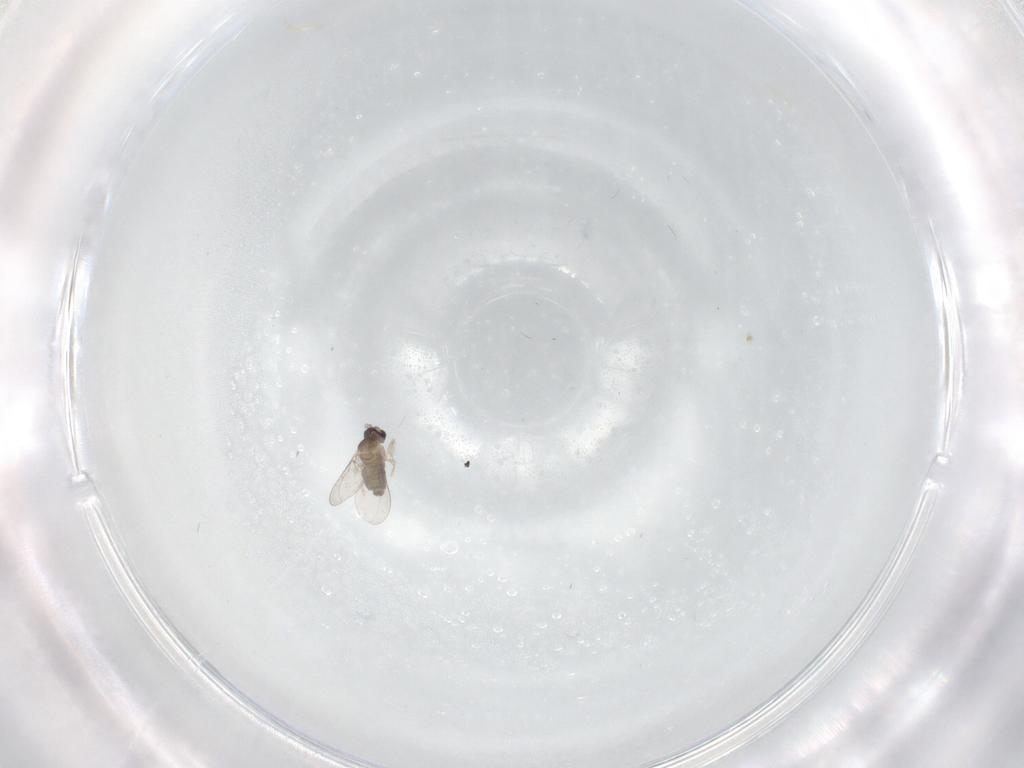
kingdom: Animalia
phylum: Arthropoda
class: Insecta
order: Diptera
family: Cecidomyiidae
